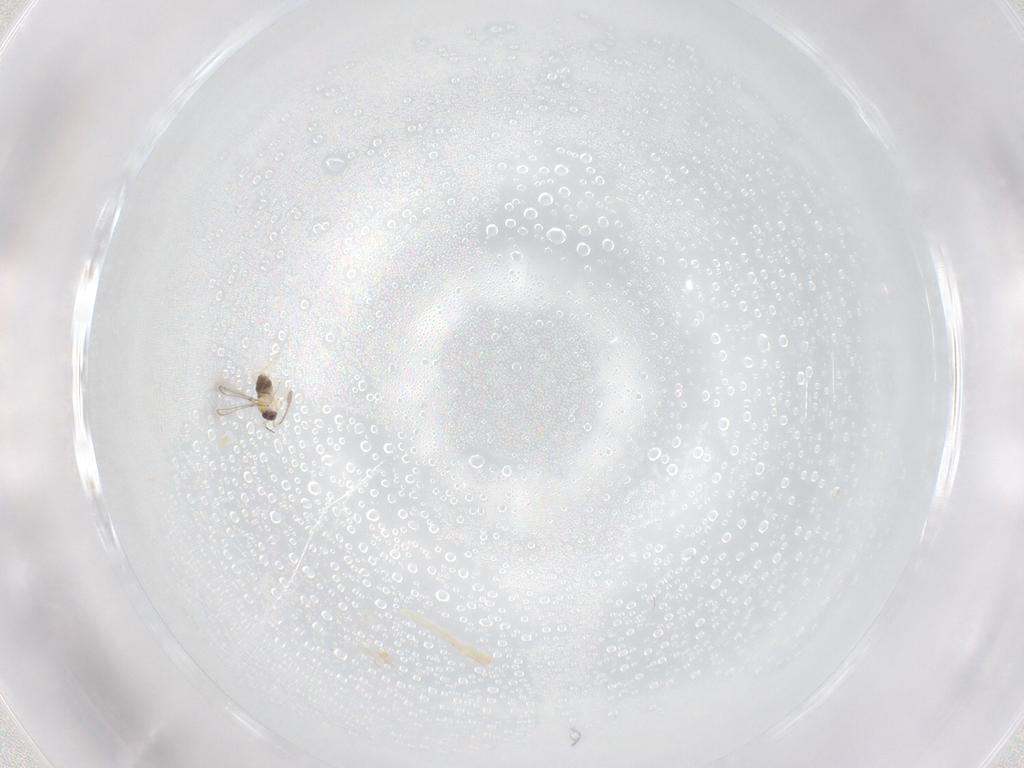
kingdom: Animalia
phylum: Arthropoda
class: Insecta
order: Hymenoptera
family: Mymaridae
